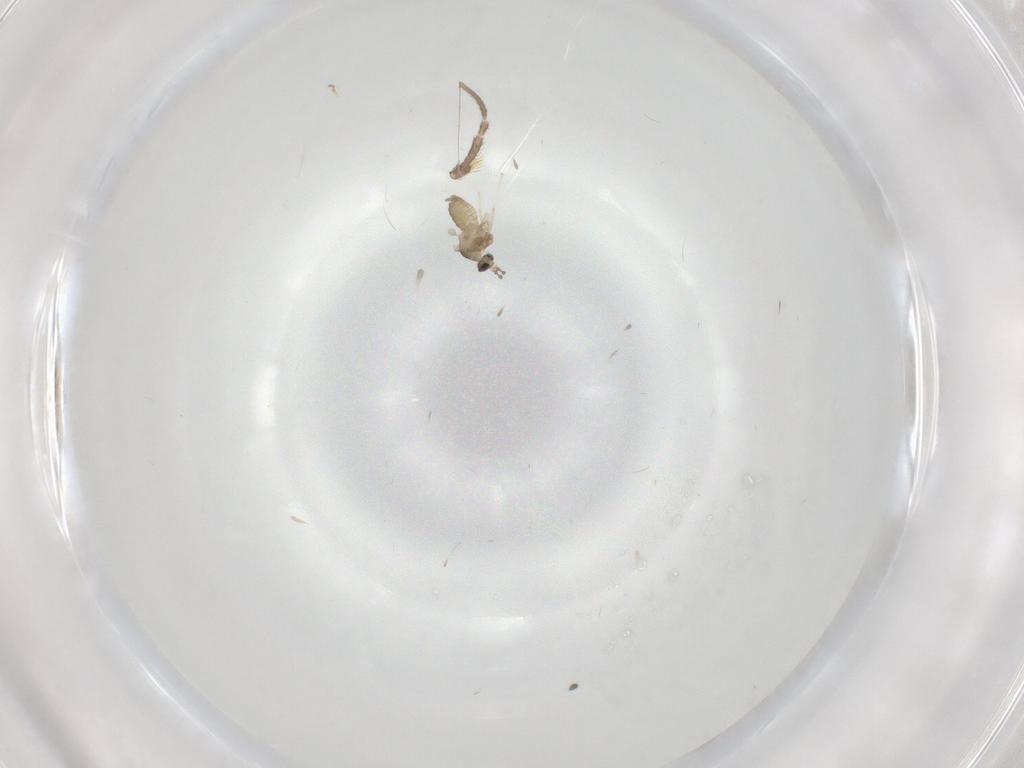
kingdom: Animalia
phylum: Arthropoda
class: Insecta
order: Diptera
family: Cecidomyiidae
